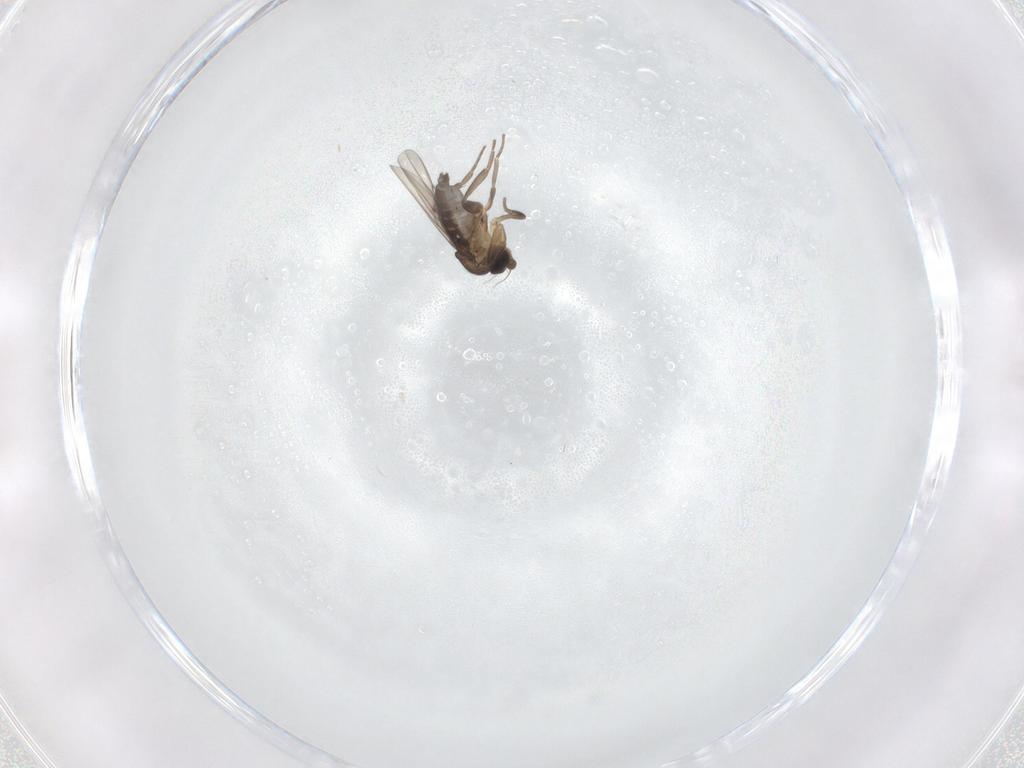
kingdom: Animalia
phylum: Arthropoda
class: Insecta
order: Diptera
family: Phoridae
